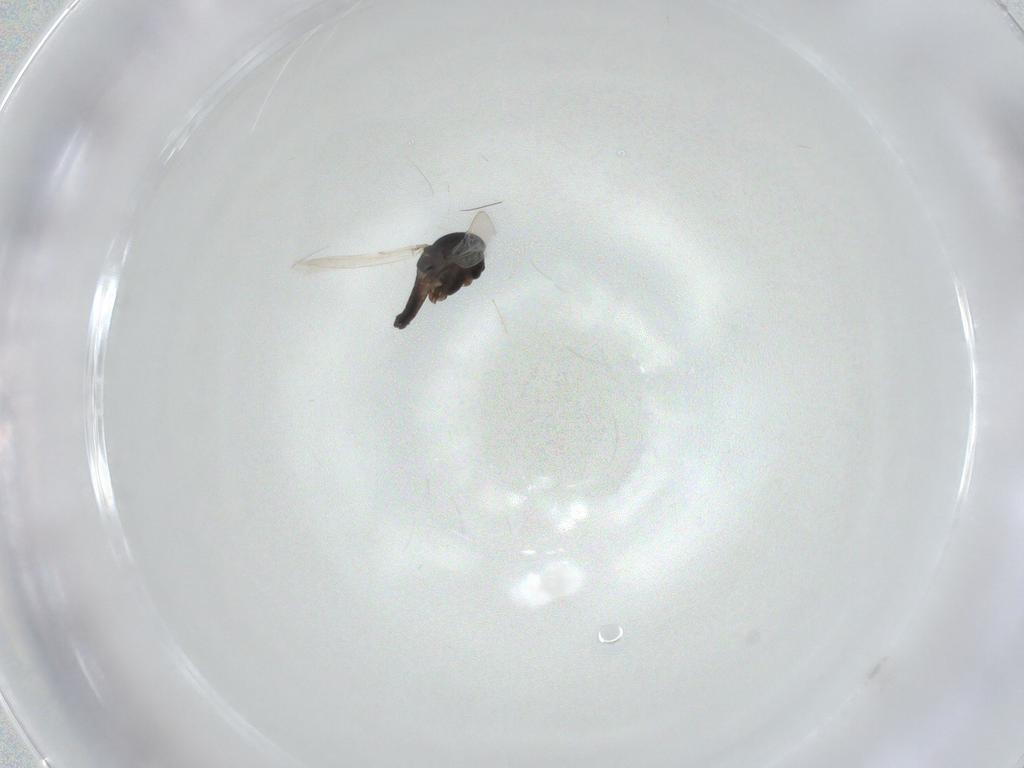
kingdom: Animalia
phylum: Arthropoda
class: Insecta
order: Diptera
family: Chironomidae
